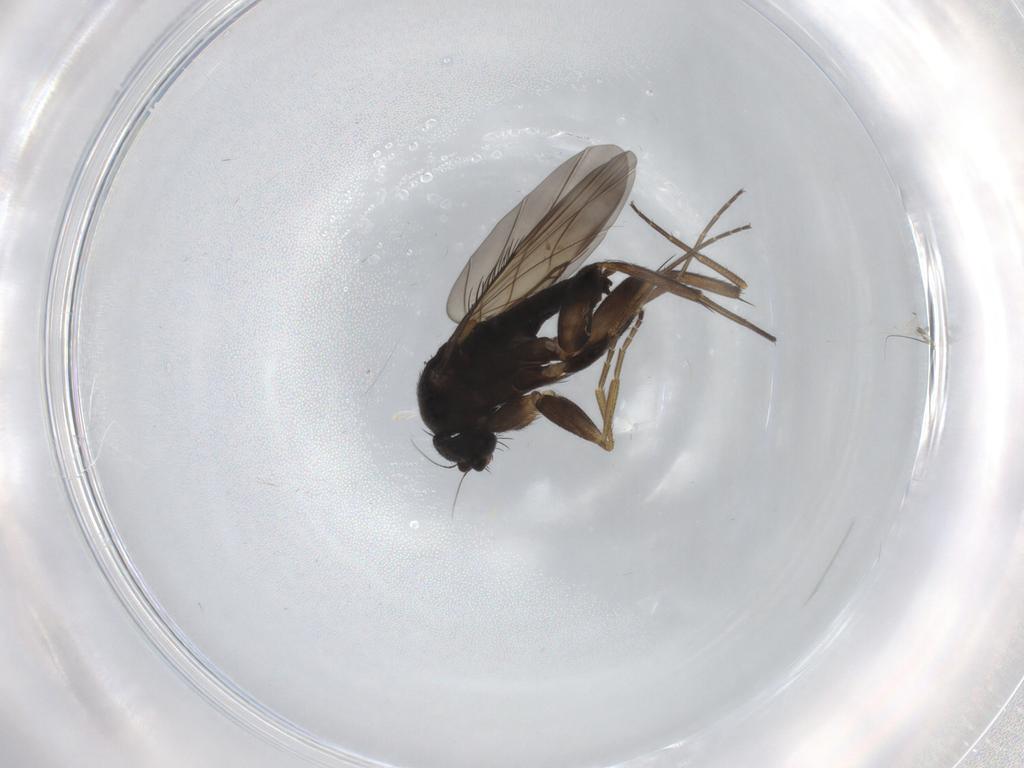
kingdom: Animalia
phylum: Arthropoda
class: Insecta
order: Diptera
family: Phoridae
